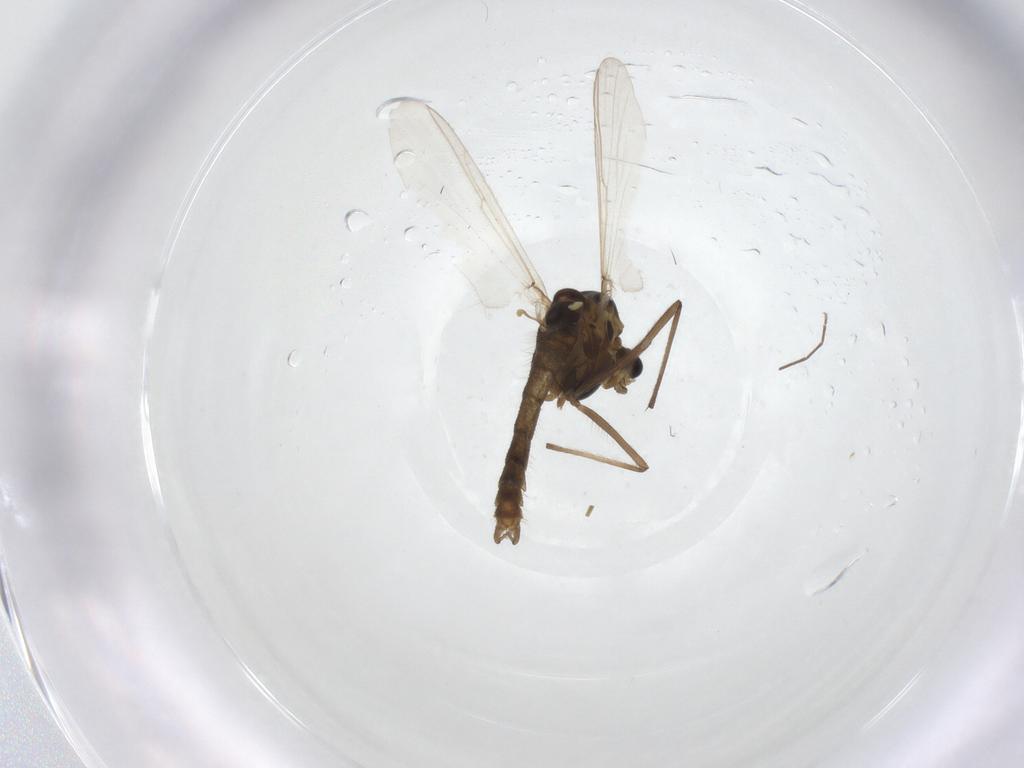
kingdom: Animalia
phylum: Arthropoda
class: Insecta
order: Diptera
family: Chironomidae
